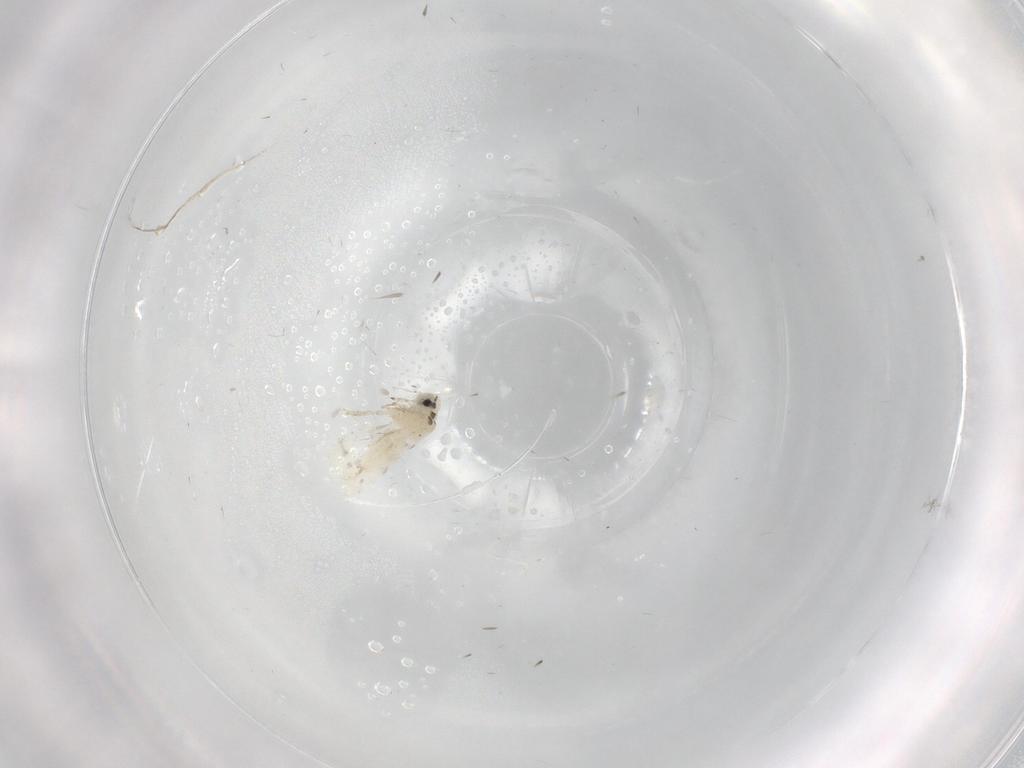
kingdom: Animalia
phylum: Arthropoda
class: Insecta
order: Hemiptera
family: Aleyrodidae
